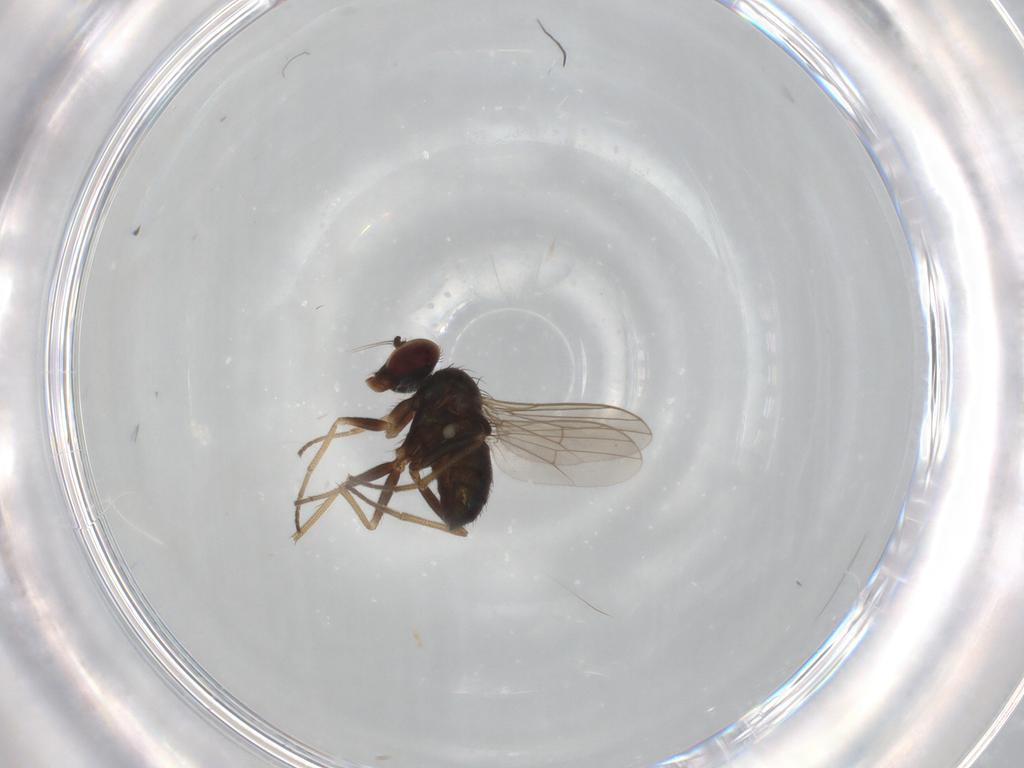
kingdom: Animalia
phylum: Arthropoda
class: Insecta
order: Diptera
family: Dolichopodidae
